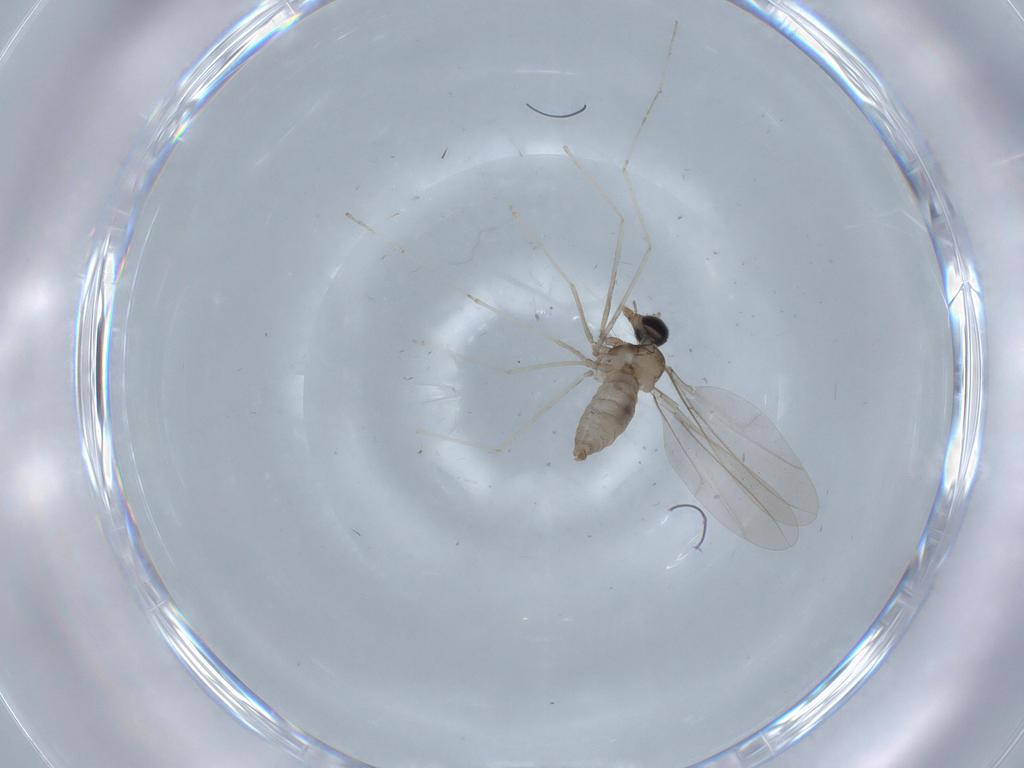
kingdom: Animalia
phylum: Arthropoda
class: Insecta
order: Diptera
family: Cecidomyiidae
